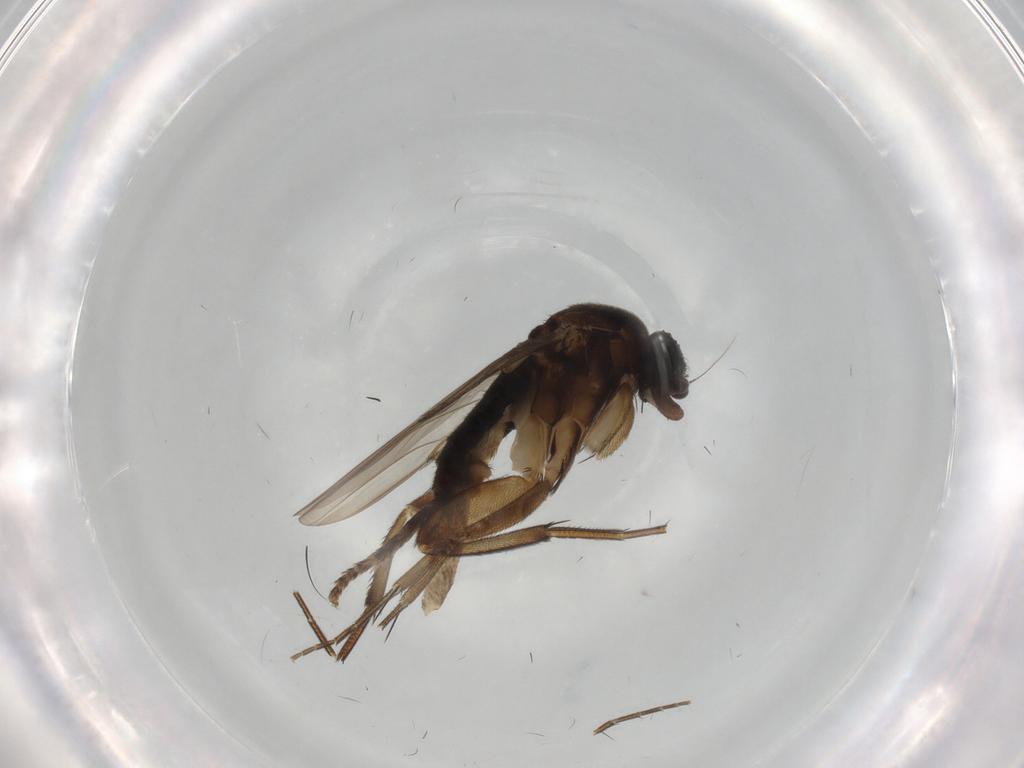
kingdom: Animalia
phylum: Arthropoda
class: Insecta
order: Diptera
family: Phoridae
